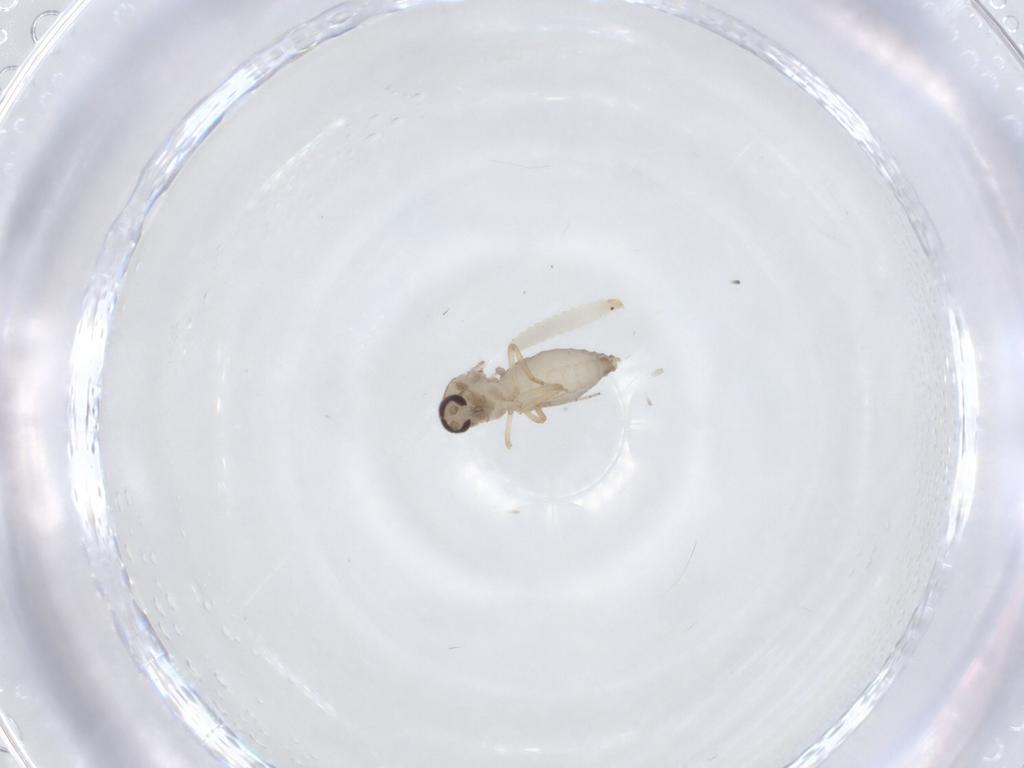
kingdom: Animalia
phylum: Arthropoda
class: Insecta
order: Diptera
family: Ceratopogonidae
